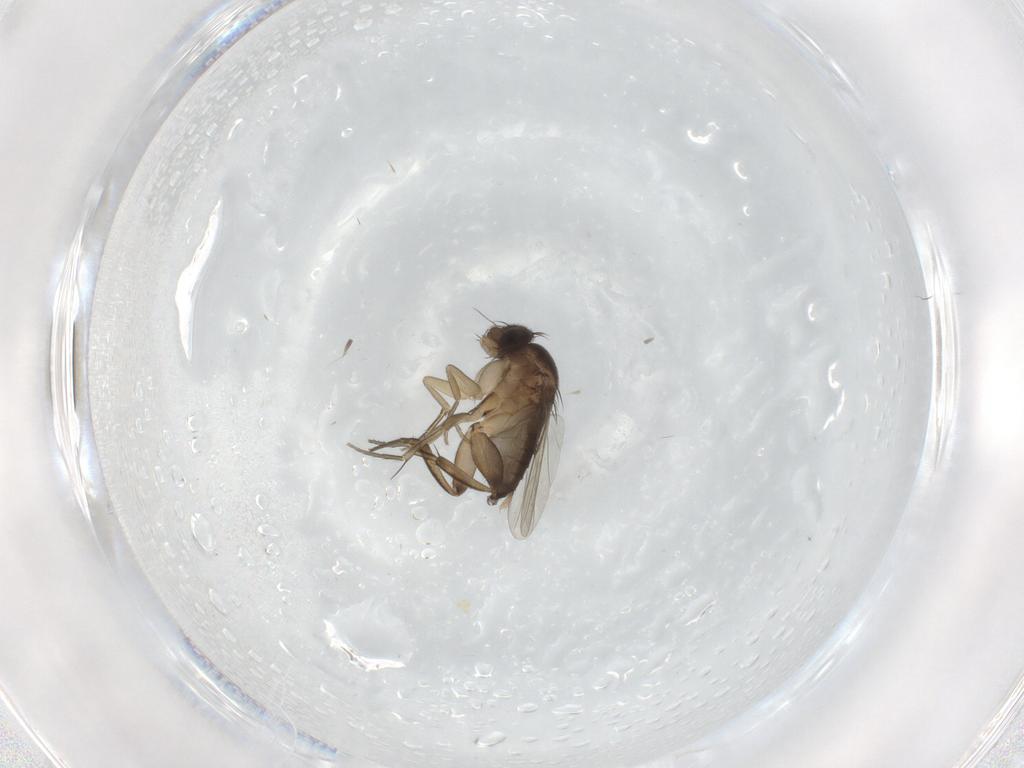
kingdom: Animalia
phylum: Arthropoda
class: Insecta
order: Diptera
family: Phoridae
